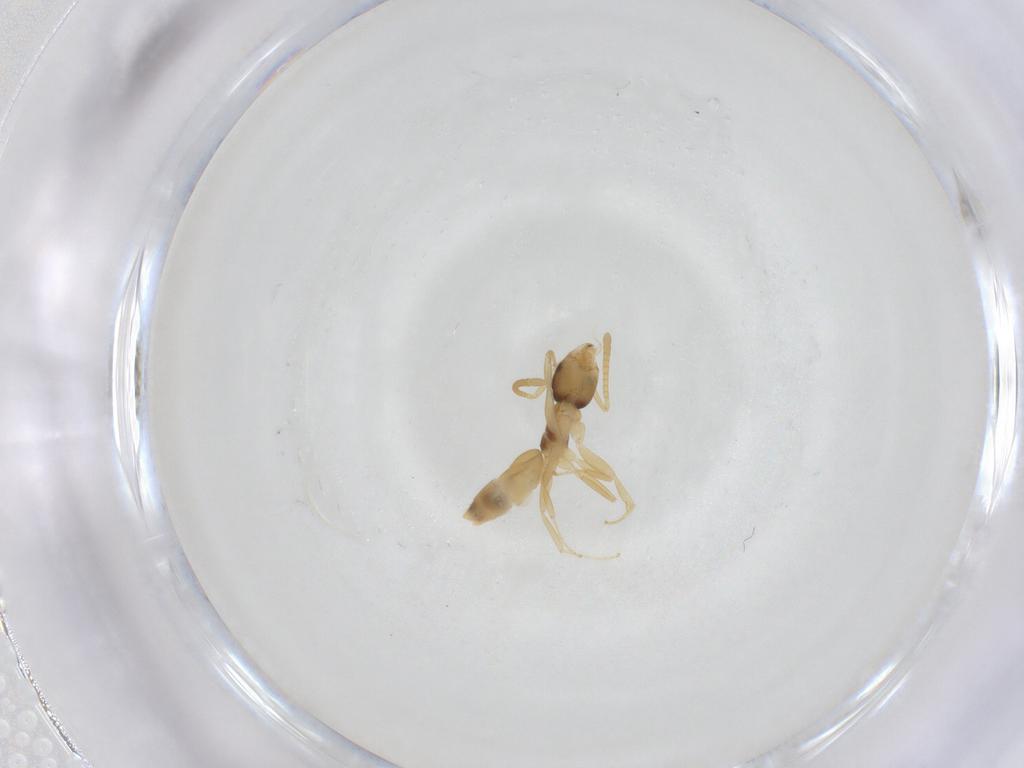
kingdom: Animalia
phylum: Arthropoda
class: Insecta
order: Hymenoptera
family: Formicidae
